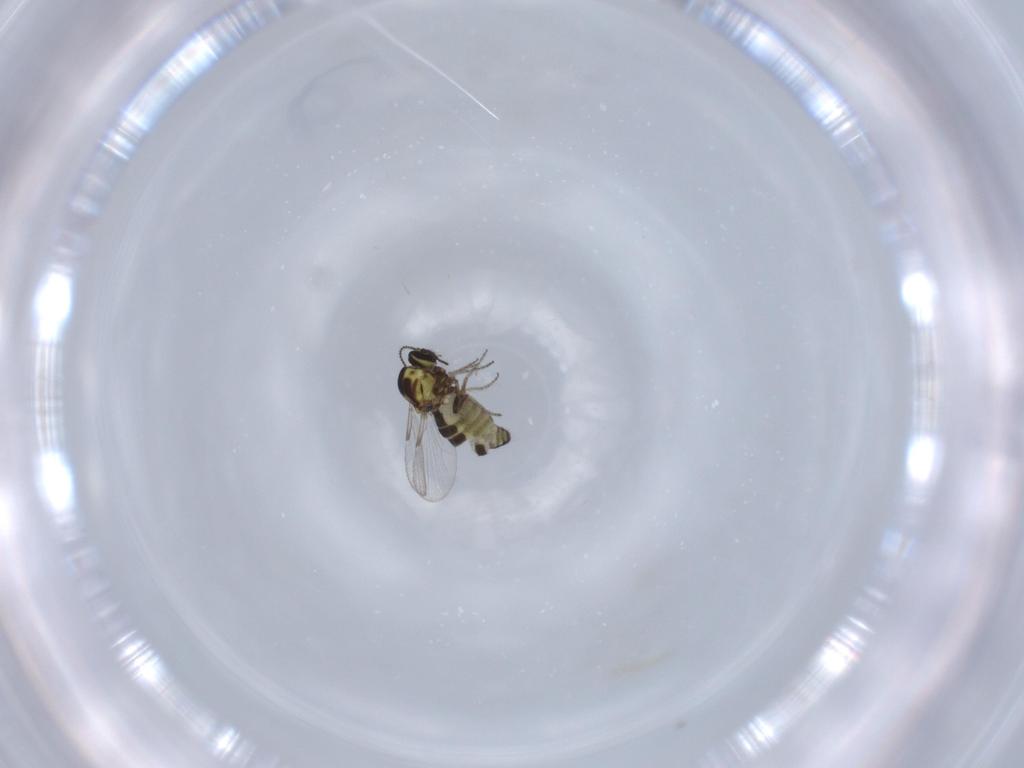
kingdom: Animalia
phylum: Arthropoda
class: Insecta
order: Diptera
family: Ceratopogonidae
